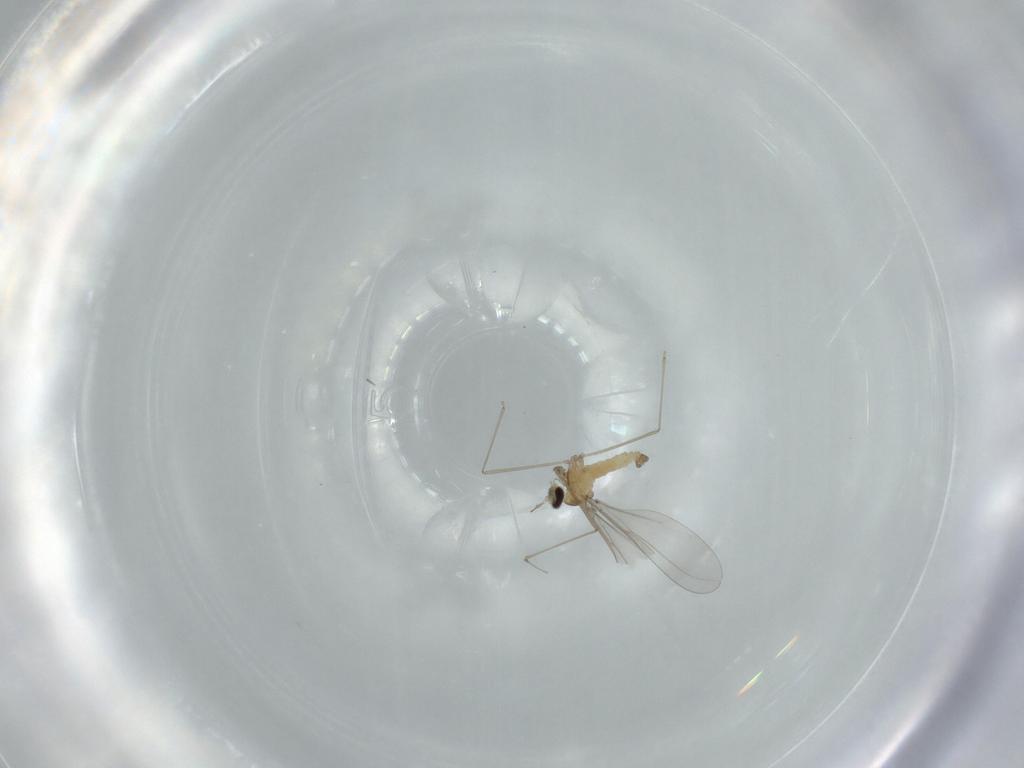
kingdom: Animalia
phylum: Arthropoda
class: Insecta
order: Diptera
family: Cecidomyiidae
